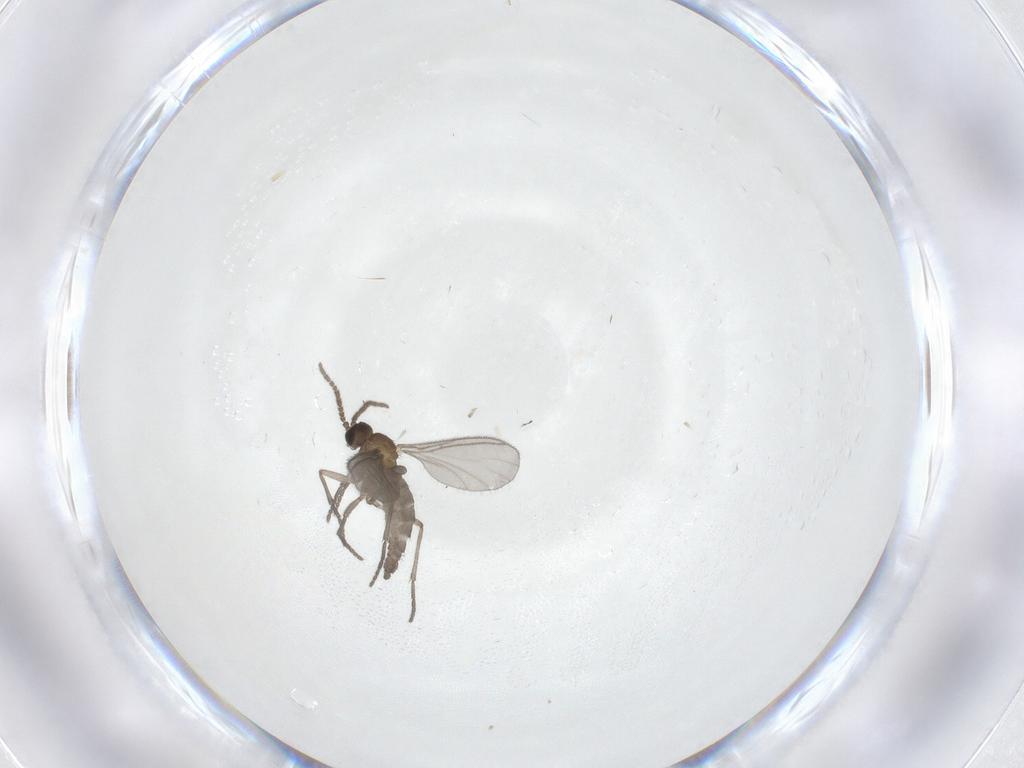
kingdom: Animalia
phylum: Arthropoda
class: Insecta
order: Diptera
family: Sciaridae
